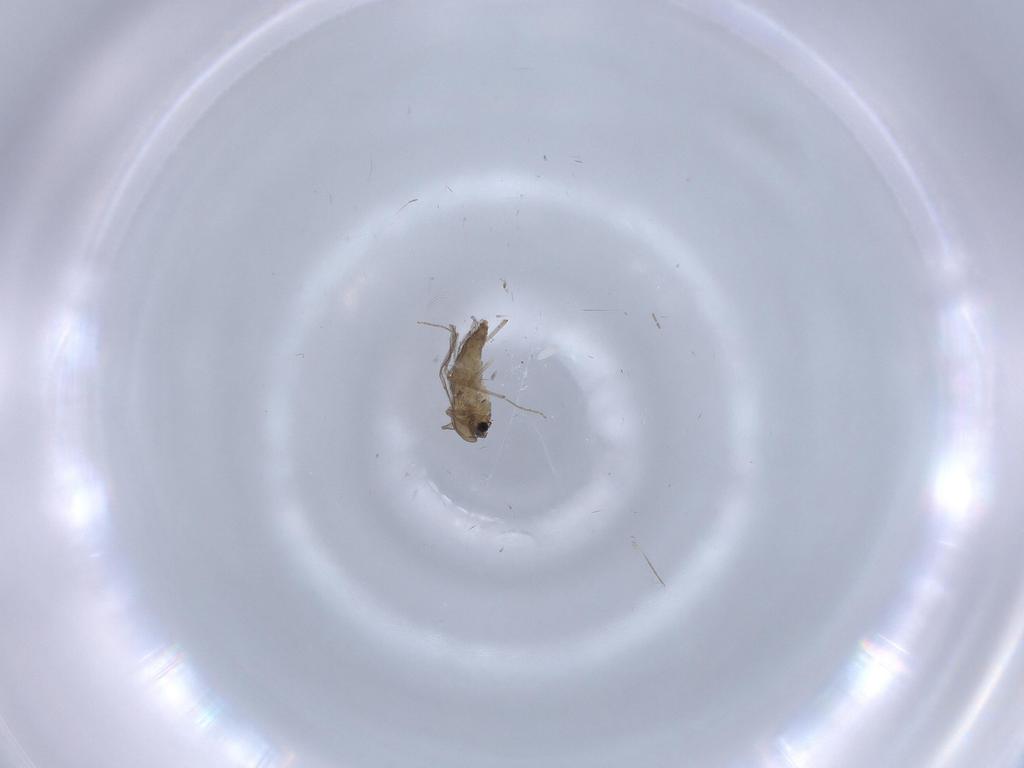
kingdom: Animalia
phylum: Arthropoda
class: Insecta
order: Diptera
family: Chironomidae
